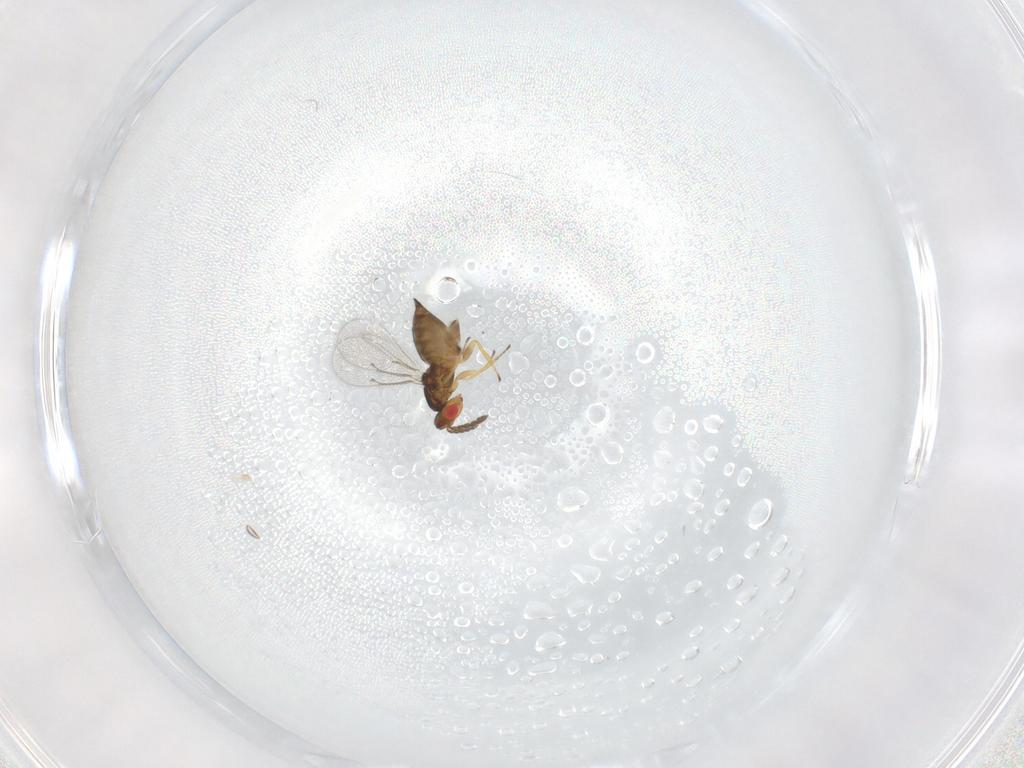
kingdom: Animalia
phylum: Arthropoda
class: Insecta
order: Hymenoptera
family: Eulophidae
